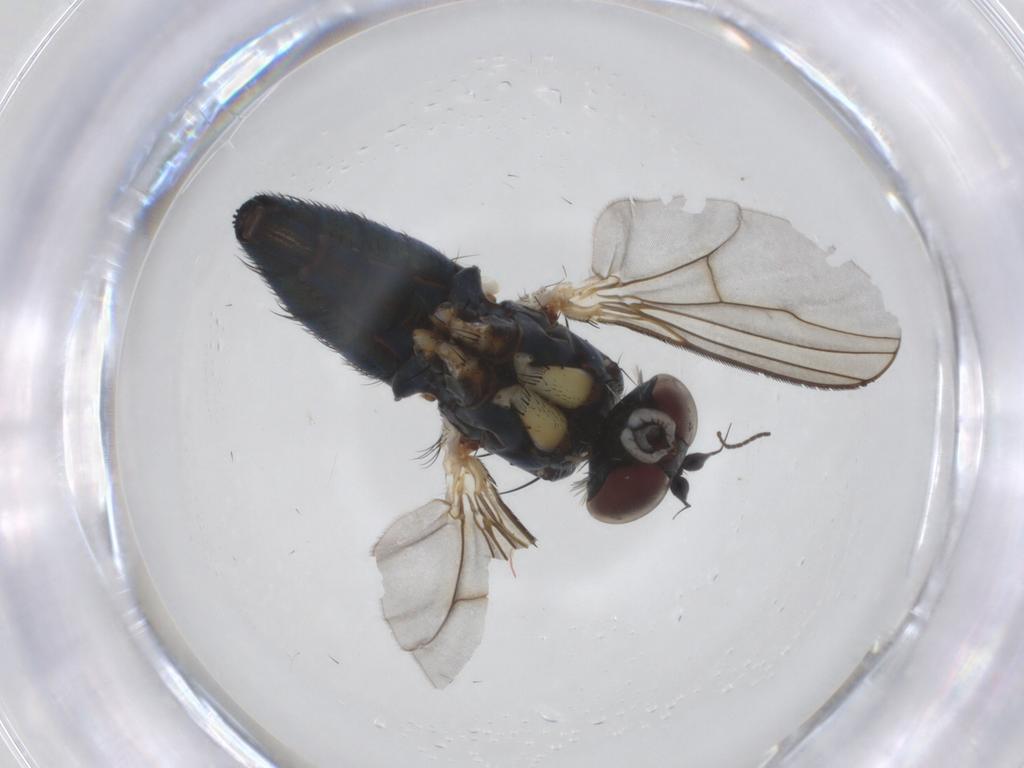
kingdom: Animalia
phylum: Arthropoda
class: Insecta
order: Diptera
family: Dolichopodidae
